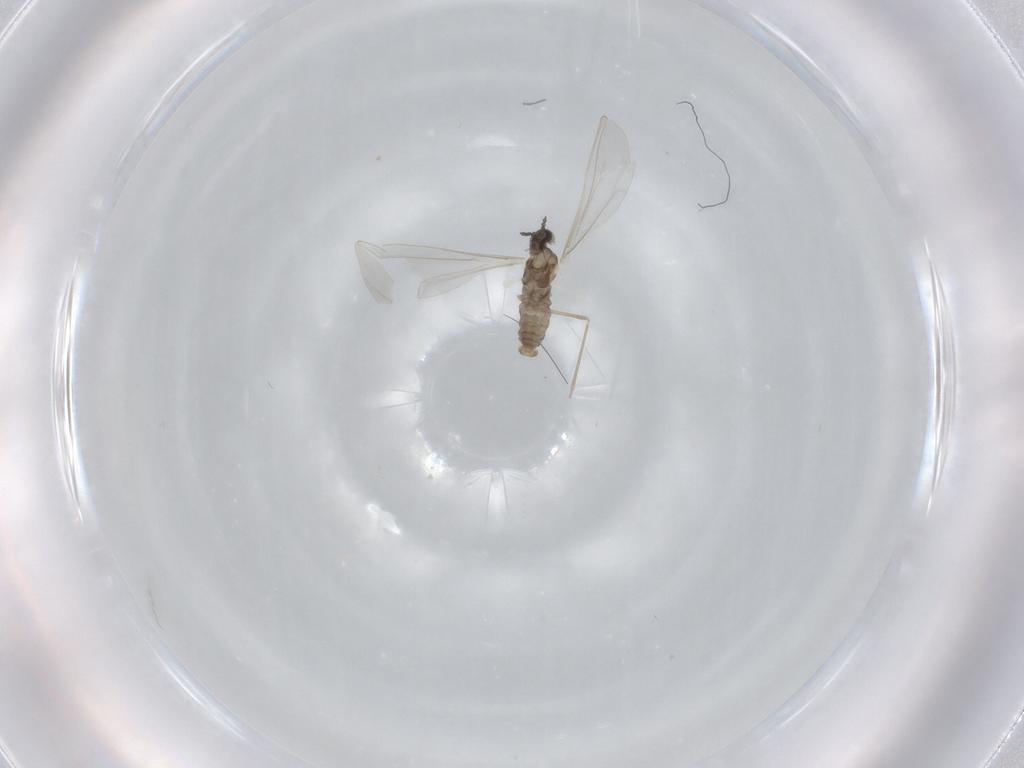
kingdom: Animalia
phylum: Arthropoda
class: Insecta
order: Diptera
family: Cecidomyiidae
